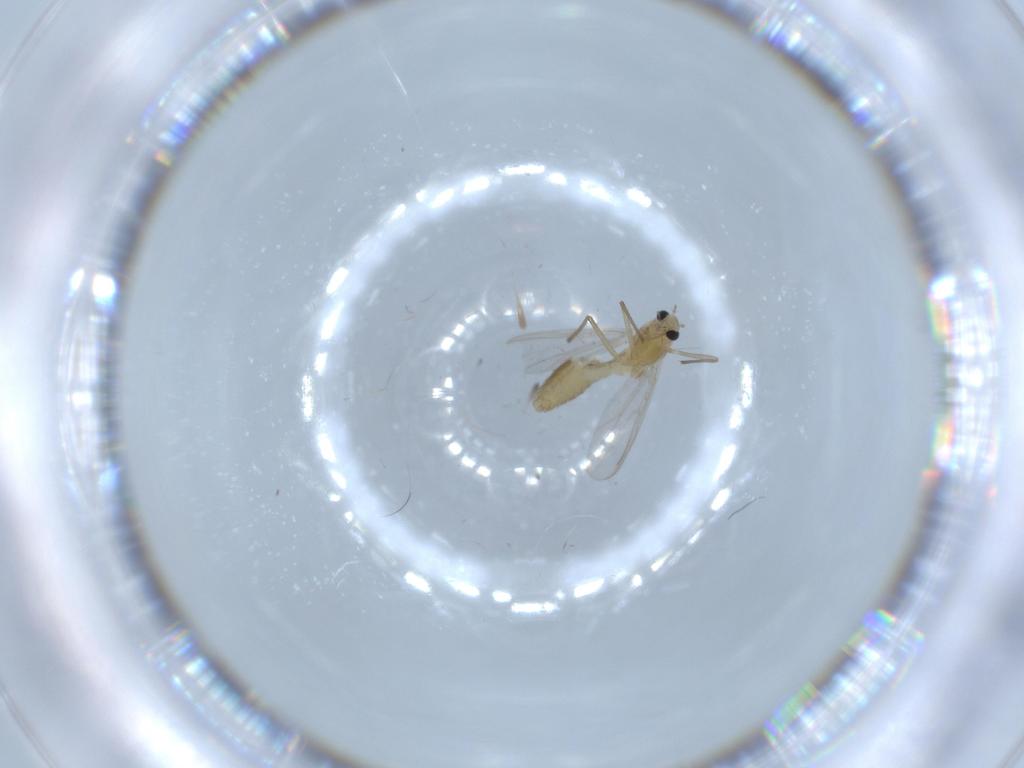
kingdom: Animalia
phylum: Arthropoda
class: Insecta
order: Diptera
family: Chironomidae
